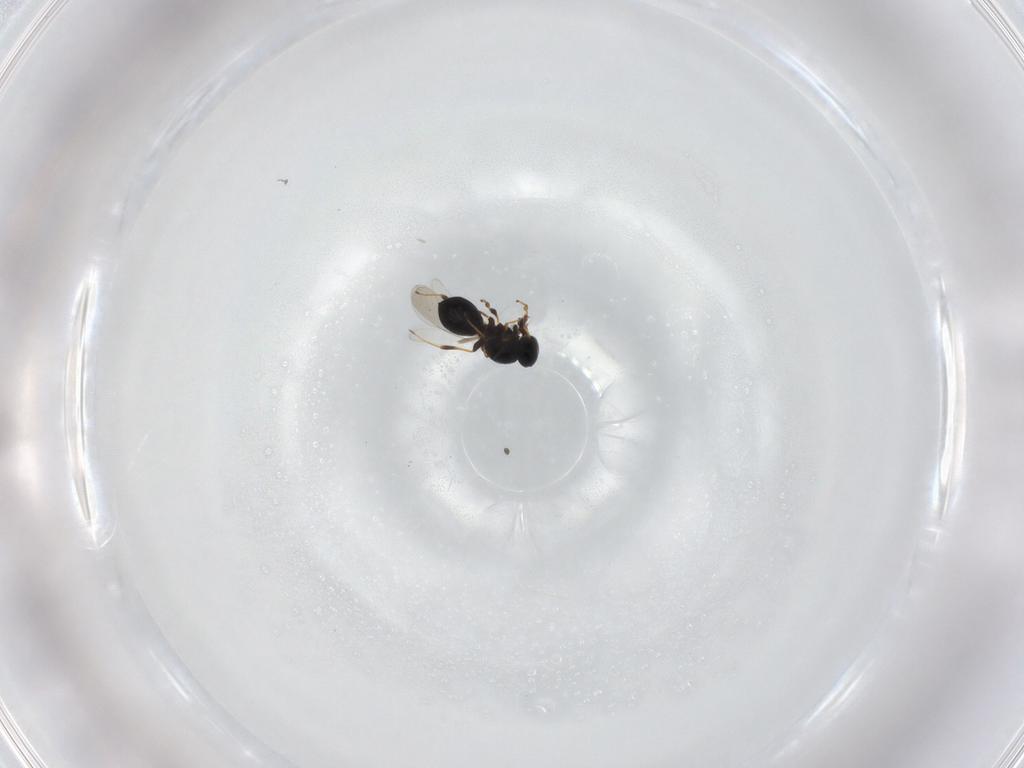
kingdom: Animalia
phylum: Arthropoda
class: Insecta
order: Hymenoptera
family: Platygastridae
